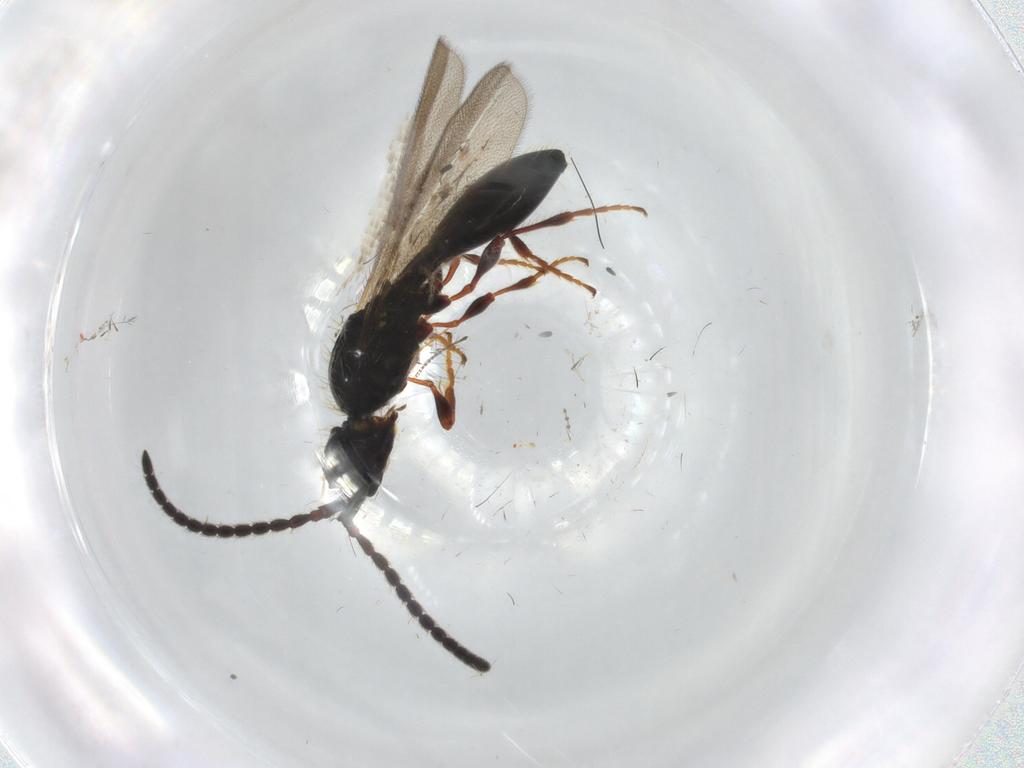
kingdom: Animalia
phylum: Arthropoda
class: Insecta
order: Hymenoptera
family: Diapriidae
